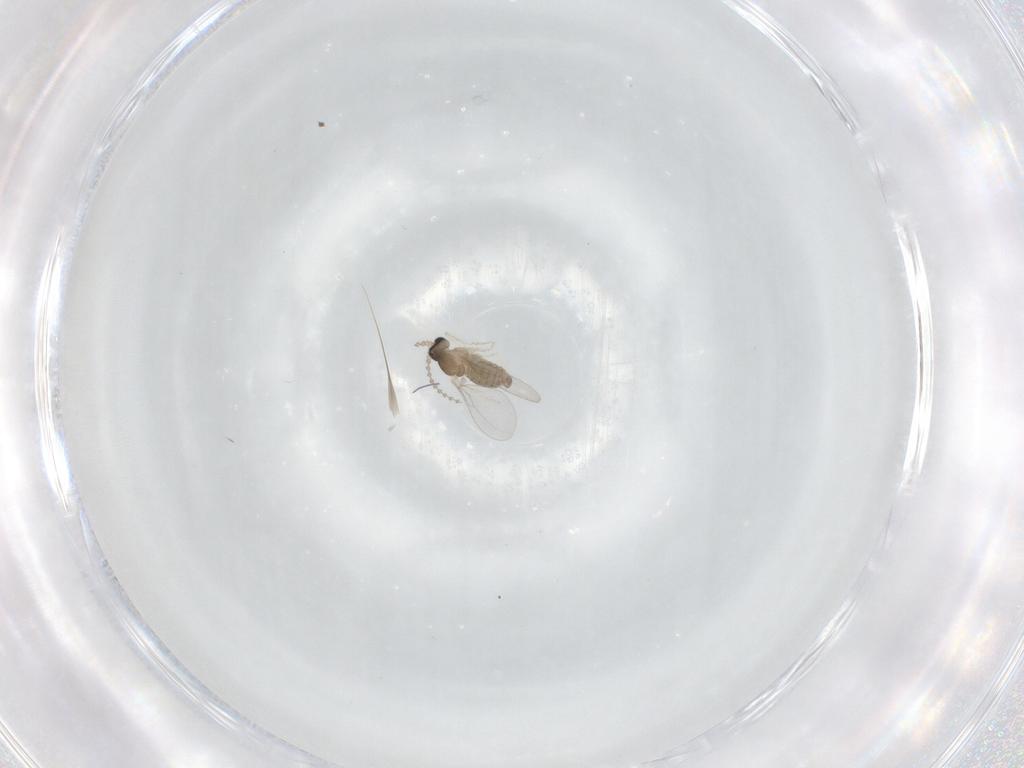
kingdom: Animalia
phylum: Arthropoda
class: Insecta
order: Diptera
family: Cecidomyiidae
